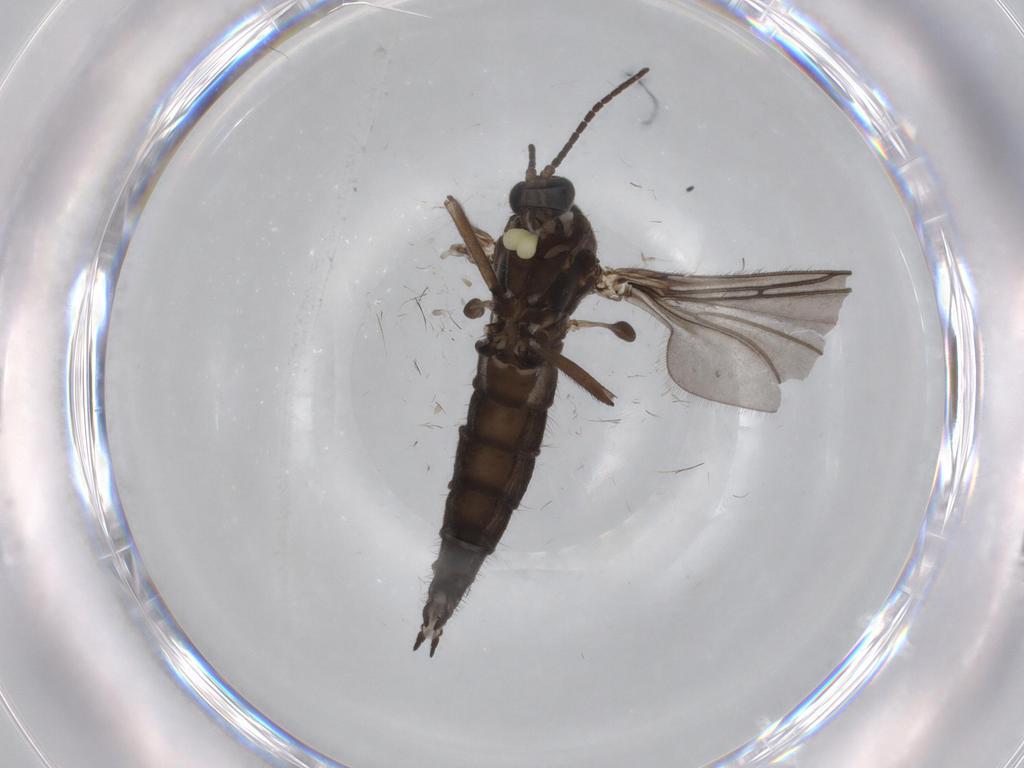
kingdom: Animalia
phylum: Arthropoda
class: Insecta
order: Diptera
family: Sciaridae
